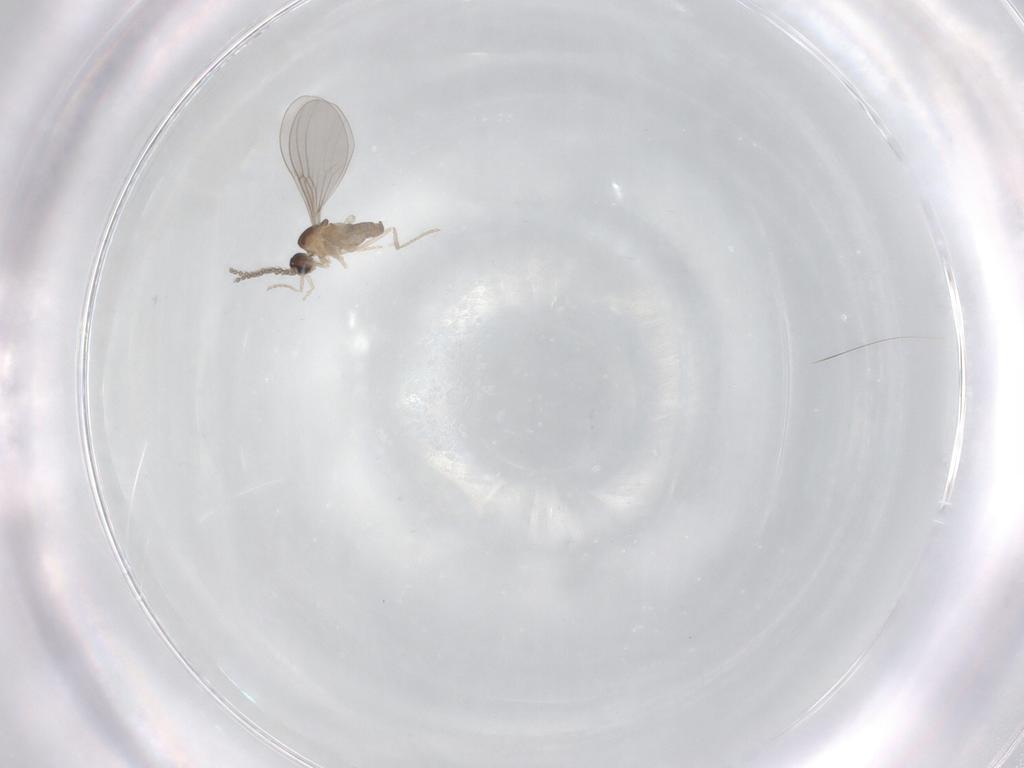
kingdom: Animalia
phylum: Arthropoda
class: Insecta
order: Diptera
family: Cecidomyiidae
